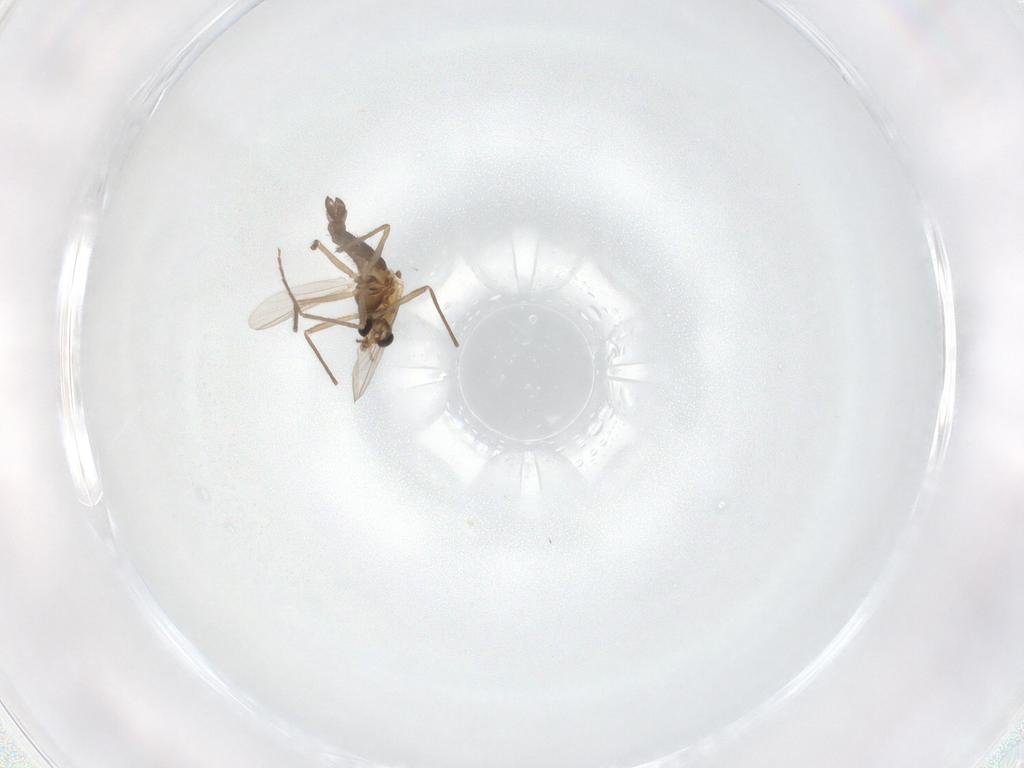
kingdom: Animalia
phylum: Arthropoda
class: Insecta
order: Diptera
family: Chironomidae
